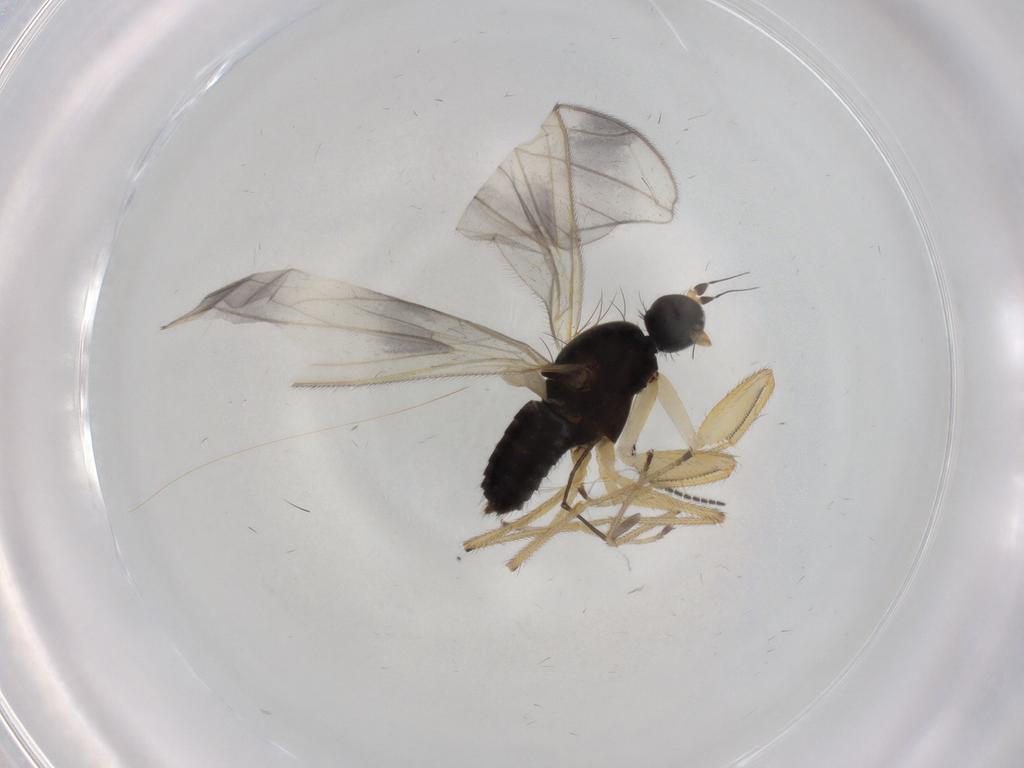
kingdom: Animalia
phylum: Arthropoda
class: Insecta
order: Diptera
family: Empididae
